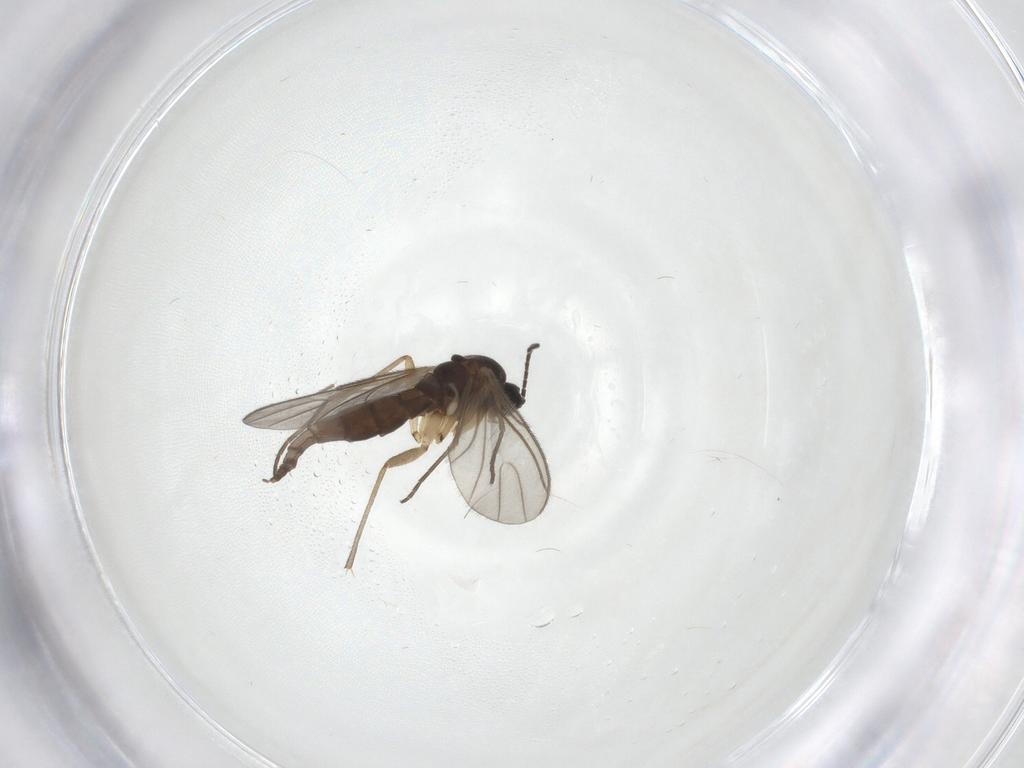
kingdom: Animalia
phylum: Arthropoda
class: Insecta
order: Diptera
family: Sciaridae
